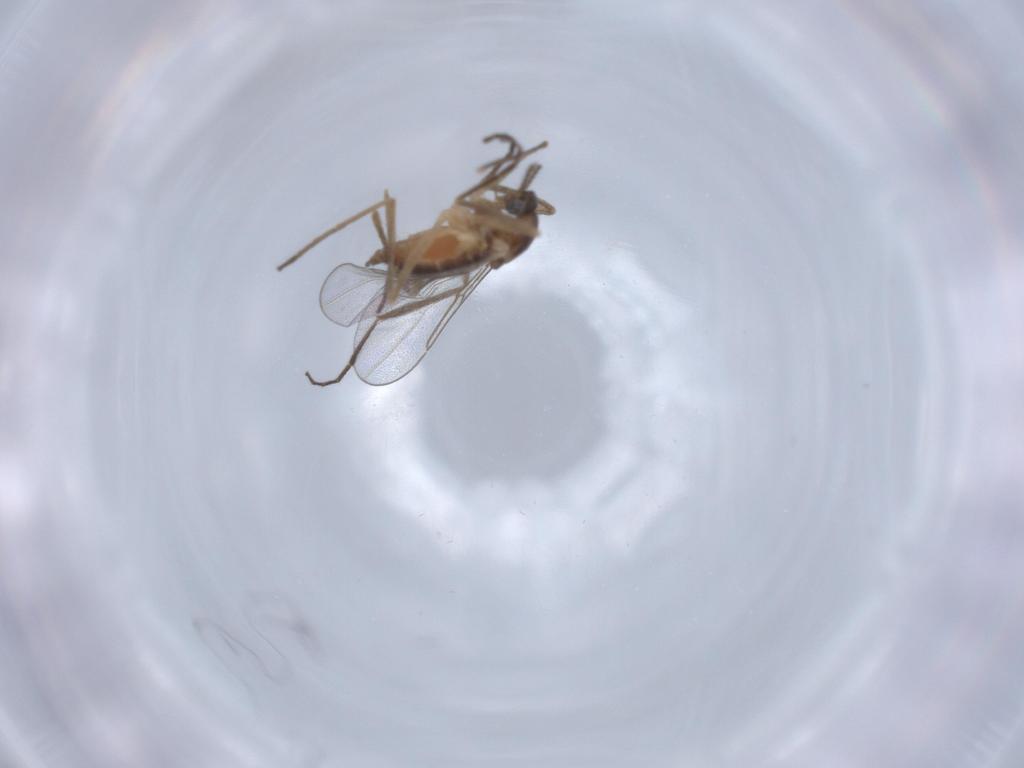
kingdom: Animalia
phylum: Arthropoda
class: Insecta
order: Diptera
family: Cecidomyiidae
